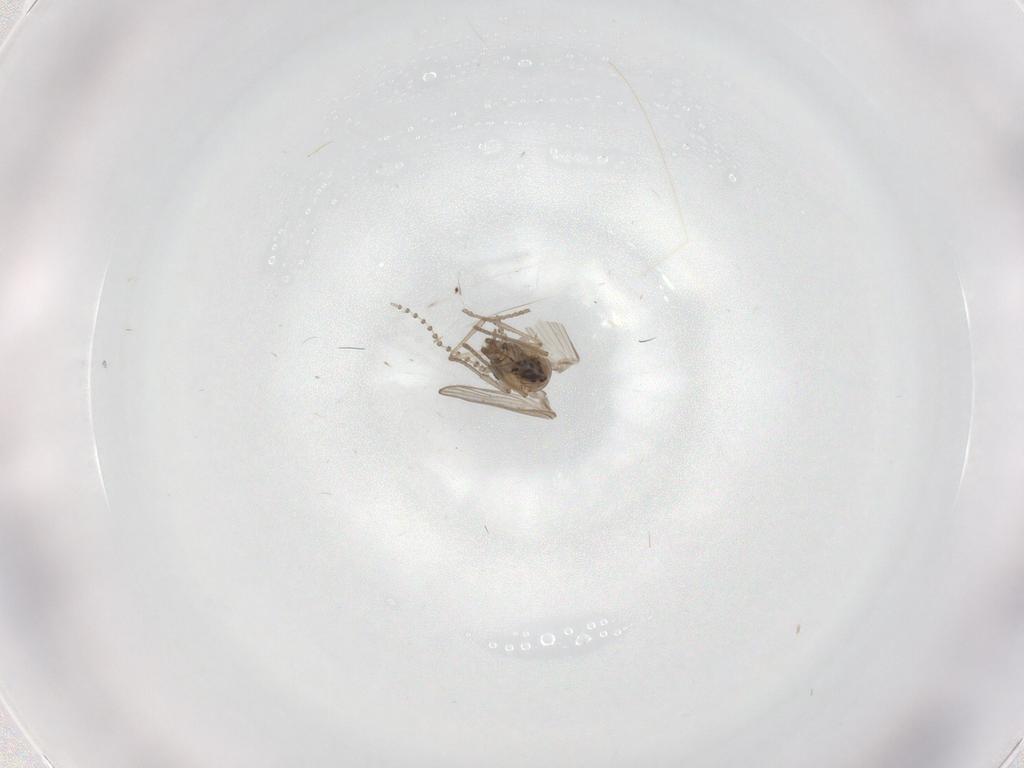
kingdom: Animalia
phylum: Arthropoda
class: Insecta
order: Diptera
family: Psychodidae
